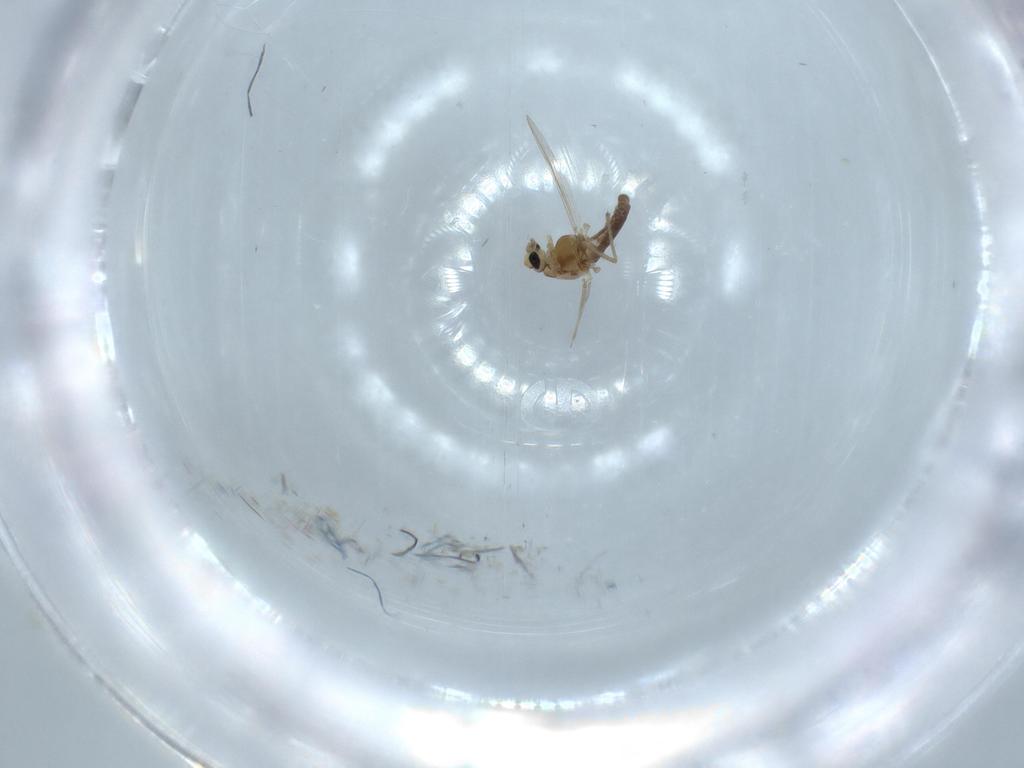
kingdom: Animalia
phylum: Arthropoda
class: Insecta
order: Diptera
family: Chironomidae
